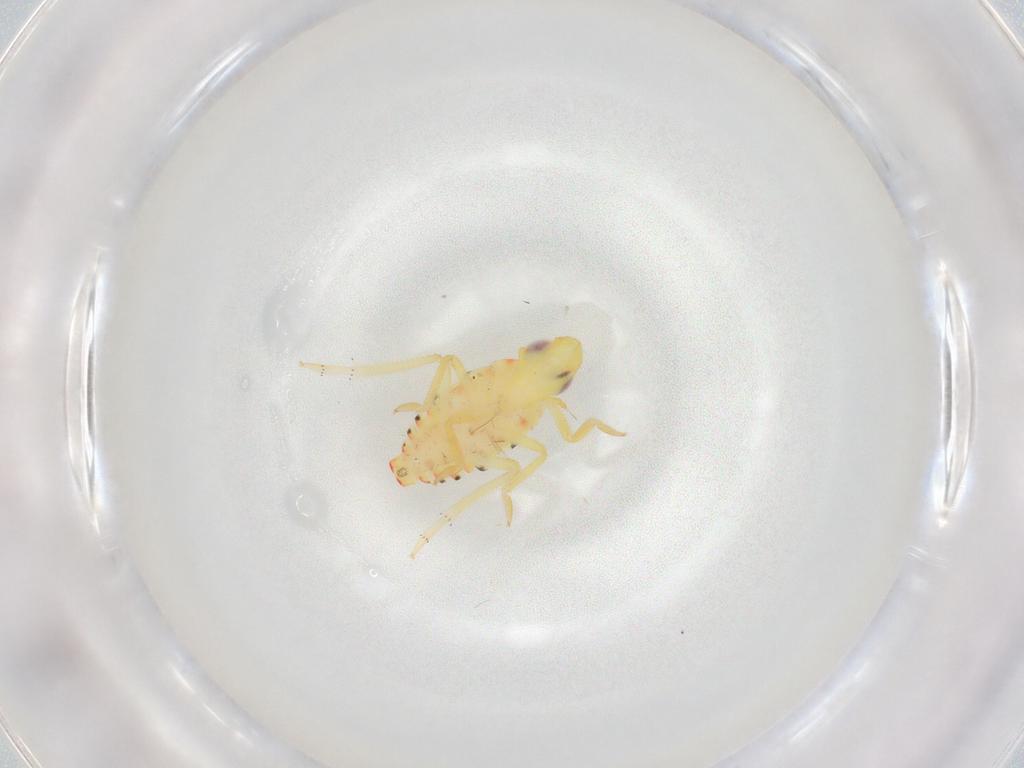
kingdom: Animalia
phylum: Arthropoda
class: Insecta
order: Hemiptera
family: Tropiduchidae
